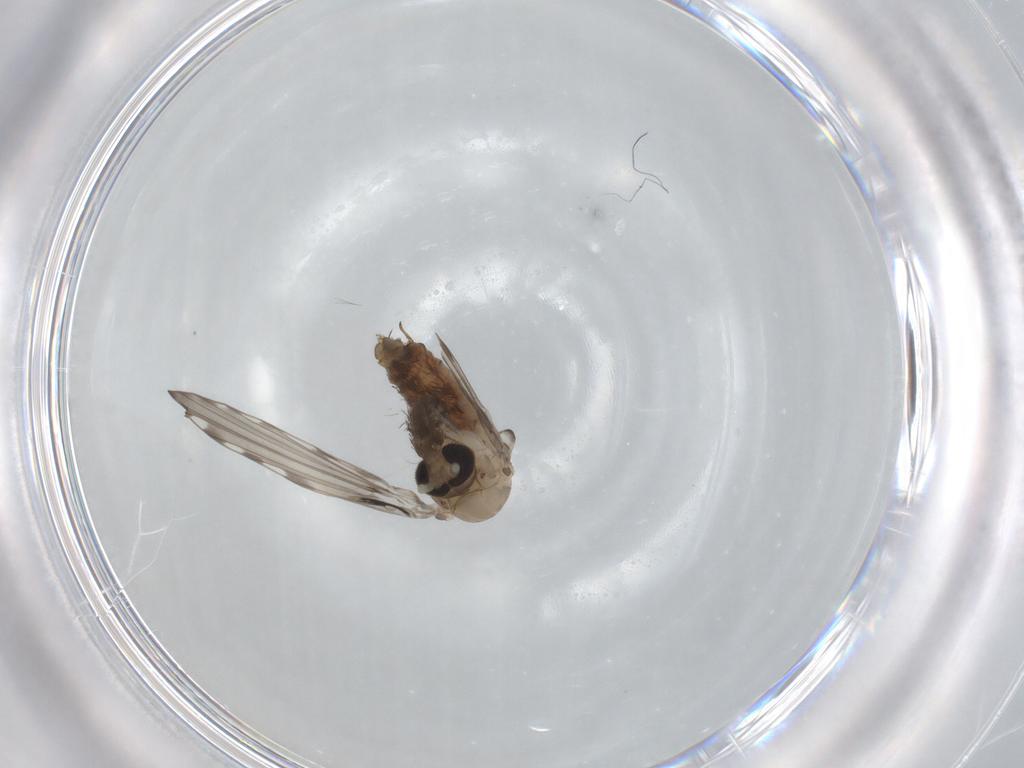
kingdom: Animalia
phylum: Arthropoda
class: Insecta
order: Diptera
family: Psychodidae
